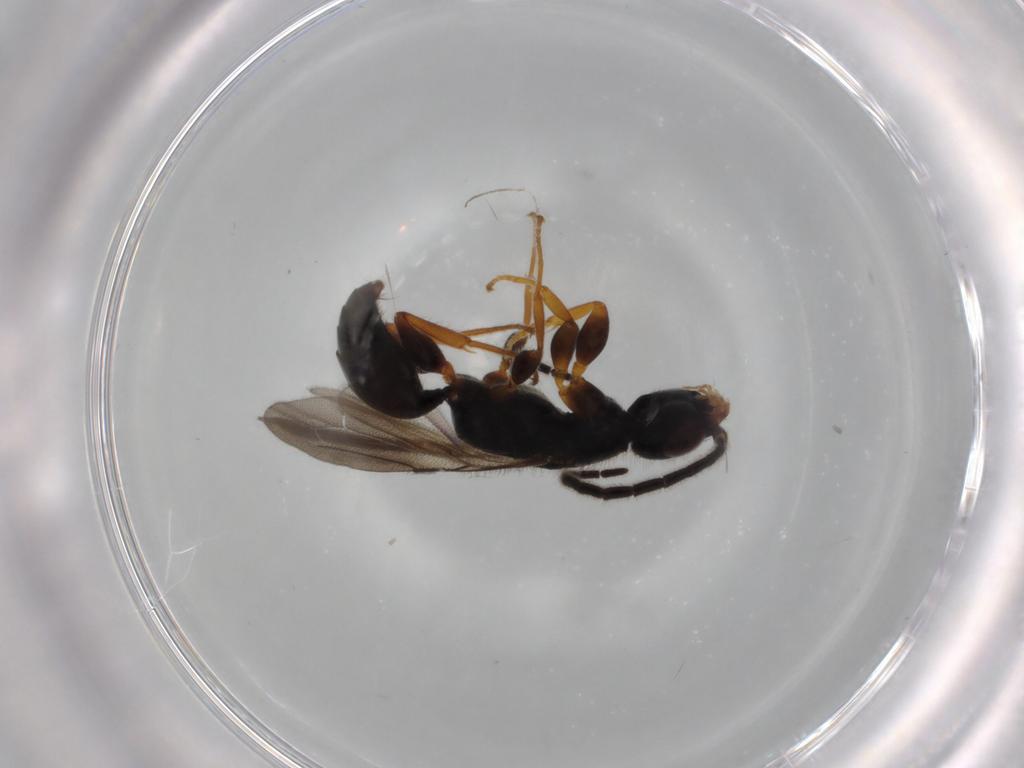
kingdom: Animalia
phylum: Arthropoda
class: Insecta
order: Hymenoptera
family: Bethylidae
